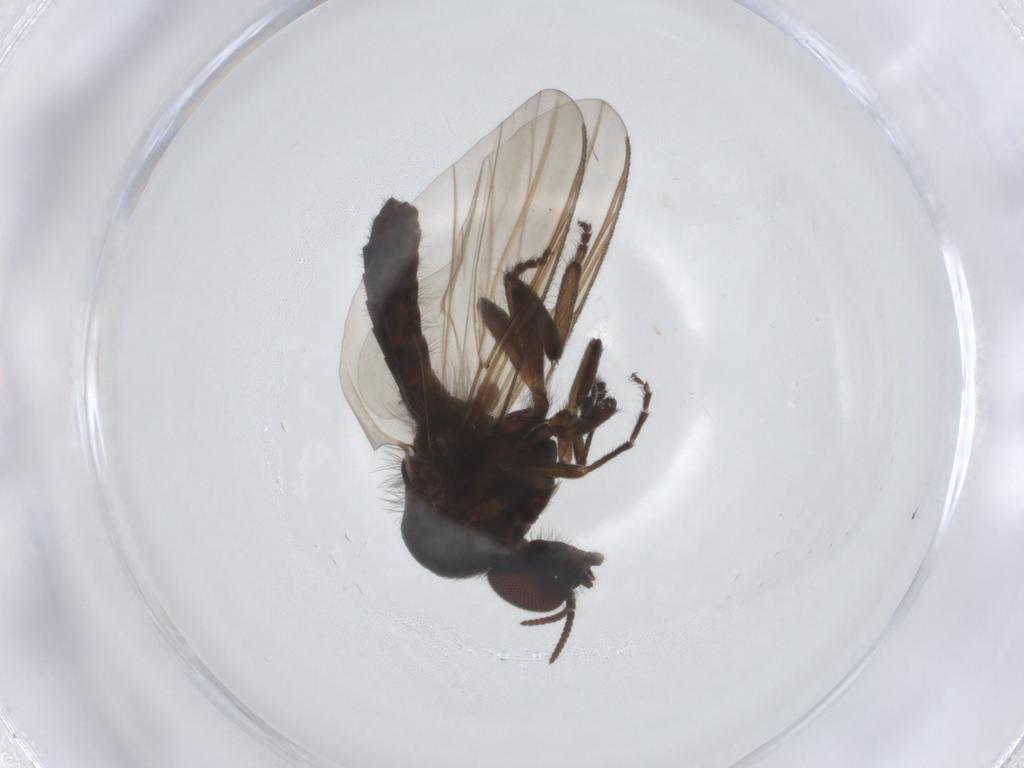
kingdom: Animalia
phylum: Arthropoda
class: Insecta
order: Diptera
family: Simuliidae
